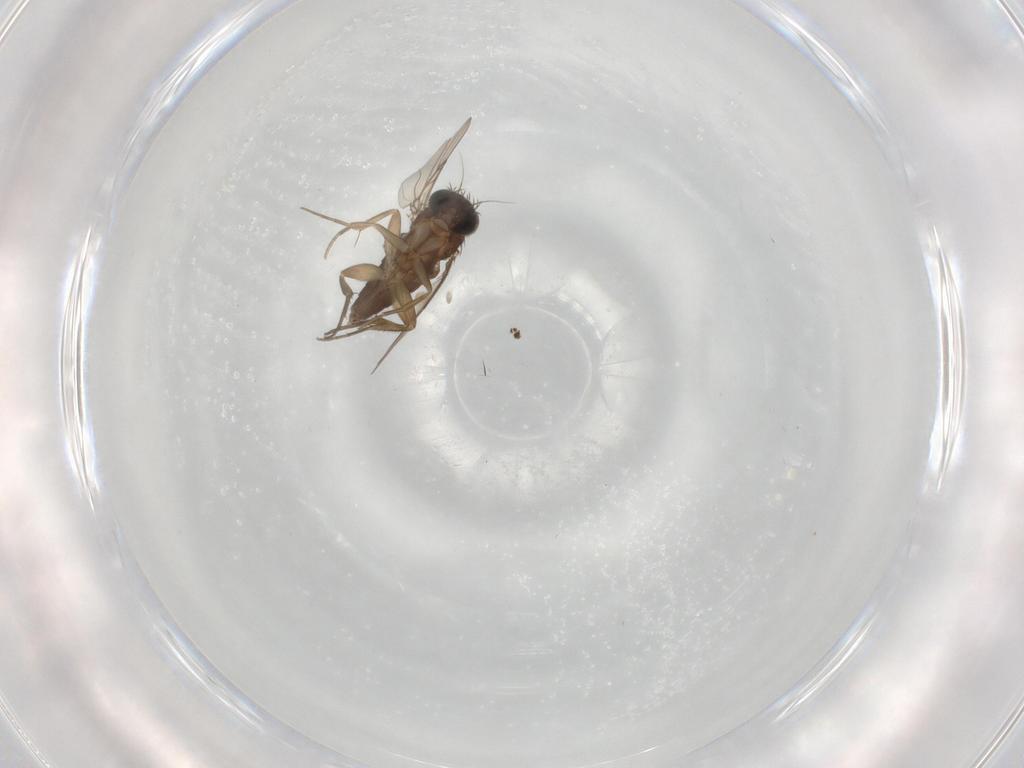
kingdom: Animalia
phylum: Arthropoda
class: Insecta
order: Diptera
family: Phoridae
